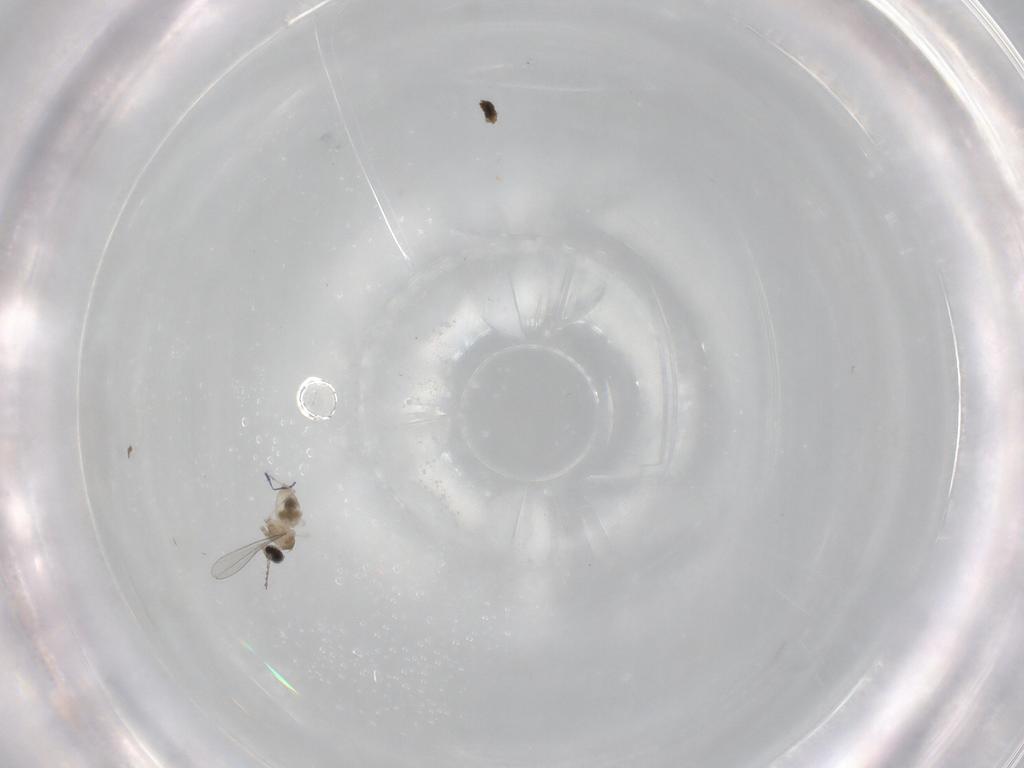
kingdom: Animalia
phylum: Arthropoda
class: Insecta
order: Diptera
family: Cecidomyiidae
